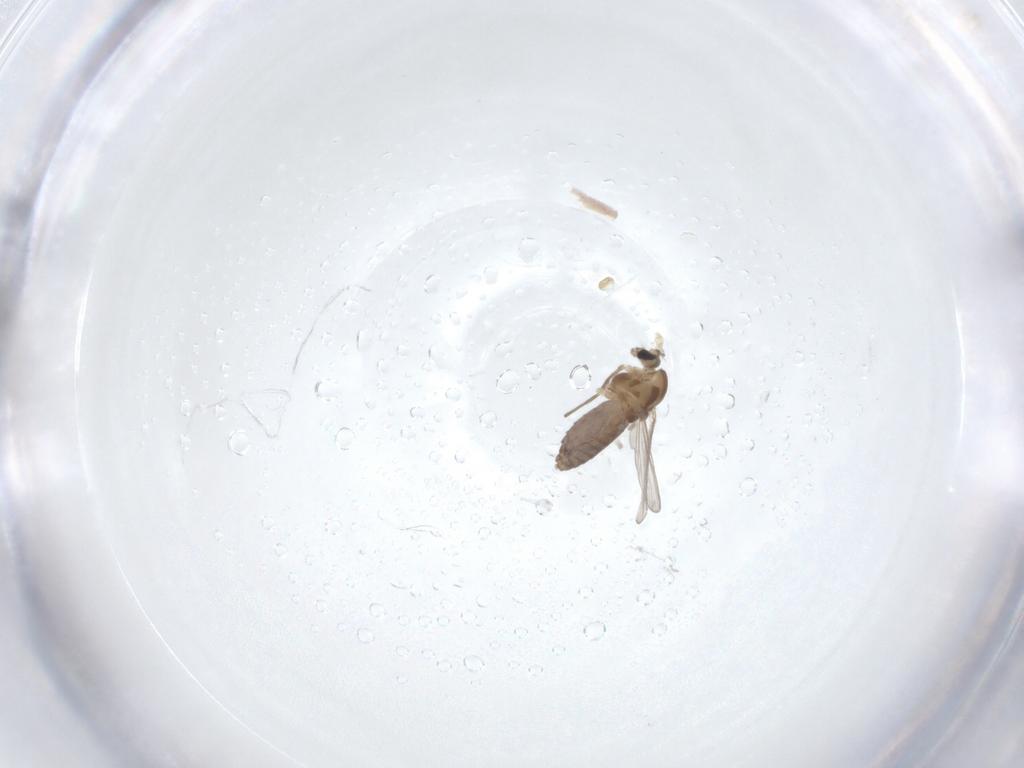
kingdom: Animalia
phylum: Arthropoda
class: Insecta
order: Diptera
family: Chironomidae
